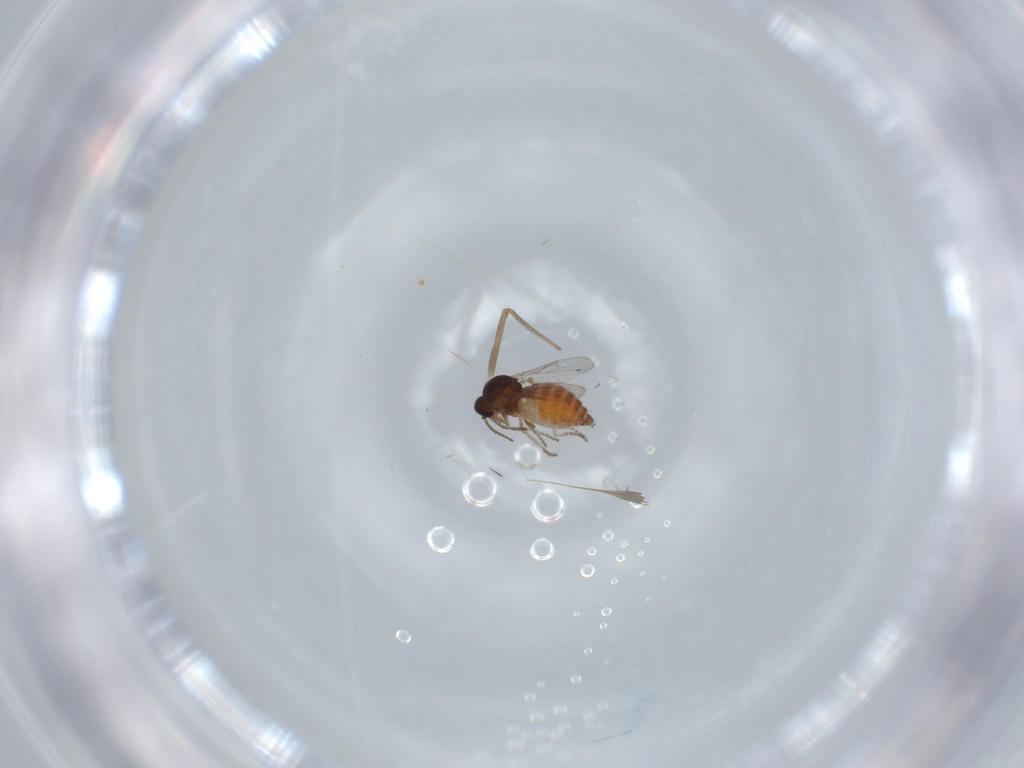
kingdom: Animalia
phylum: Arthropoda
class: Insecta
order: Diptera
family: Ceratopogonidae
